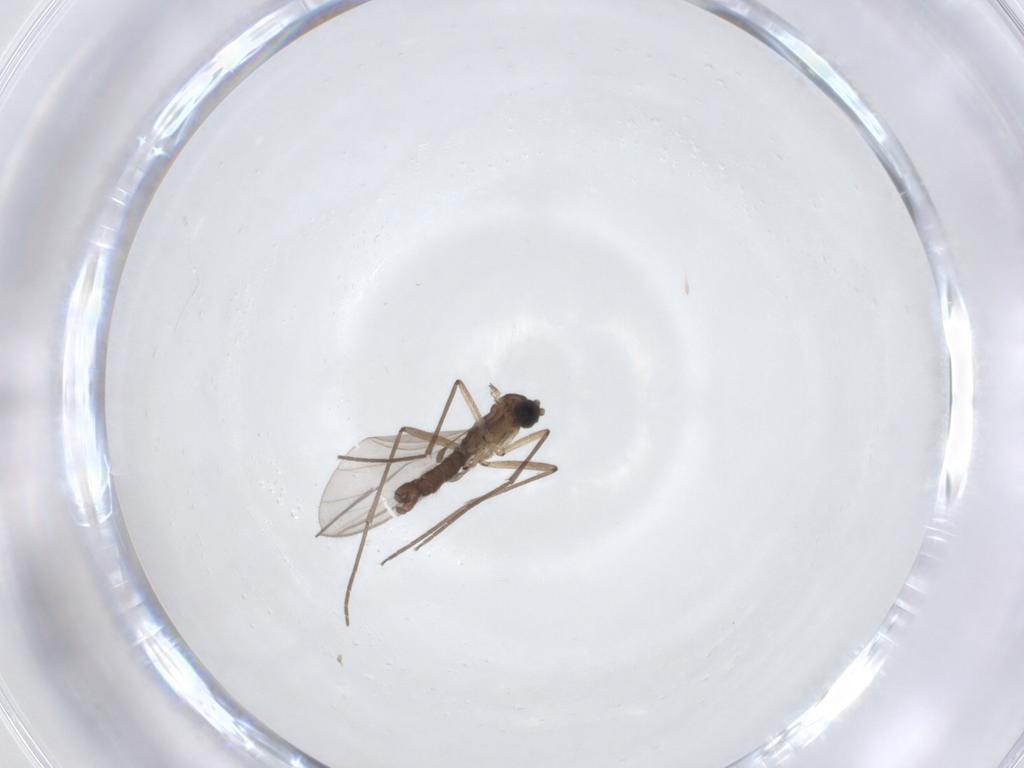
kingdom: Animalia
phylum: Arthropoda
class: Insecta
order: Diptera
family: Sciaridae
